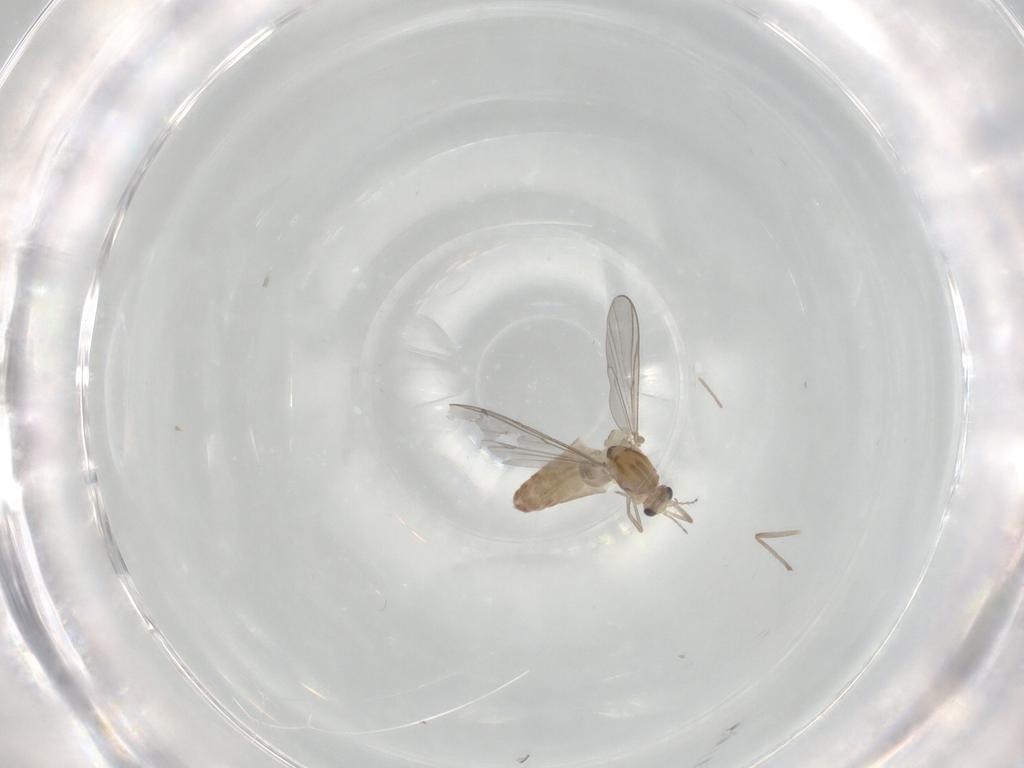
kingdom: Animalia
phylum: Arthropoda
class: Insecta
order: Diptera
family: Chironomidae
